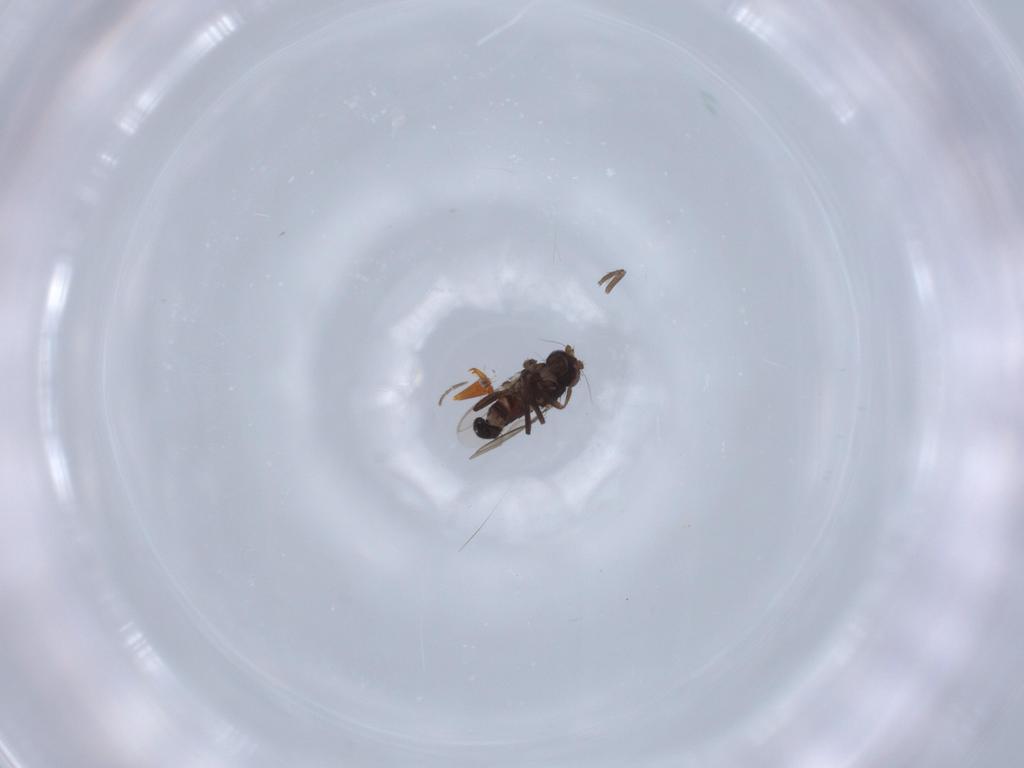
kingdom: Animalia
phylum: Arthropoda
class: Insecta
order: Diptera
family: Sphaeroceridae
